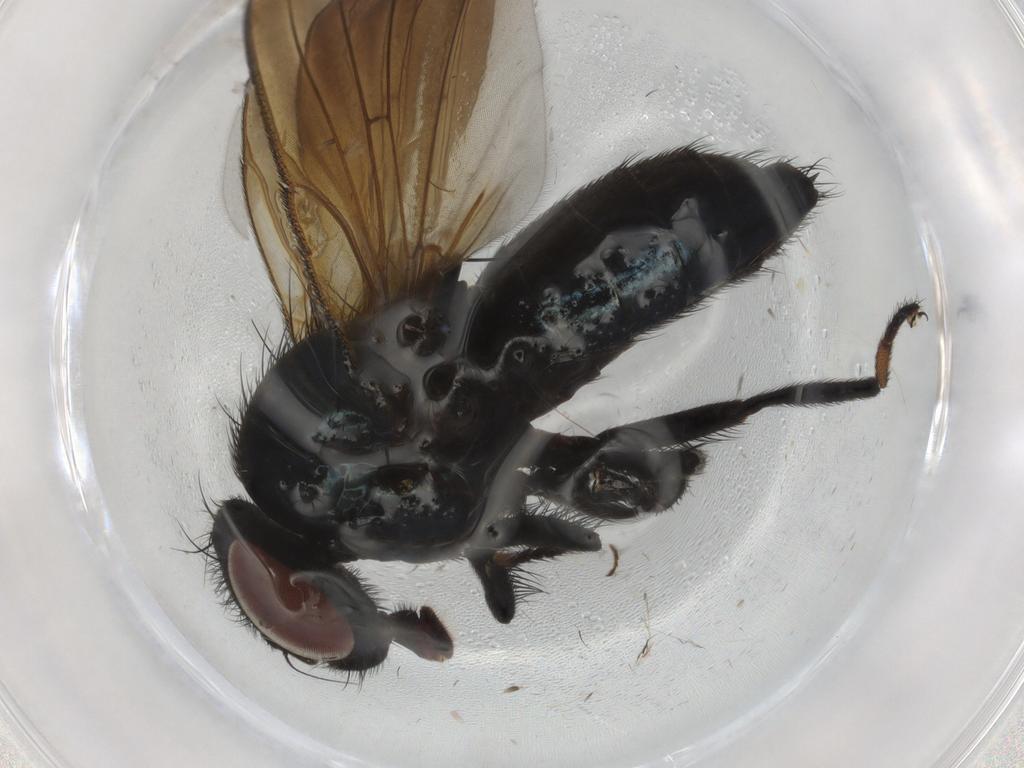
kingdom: Animalia
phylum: Arthropoda
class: Insecta
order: Diptera
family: Lonchaeidae
